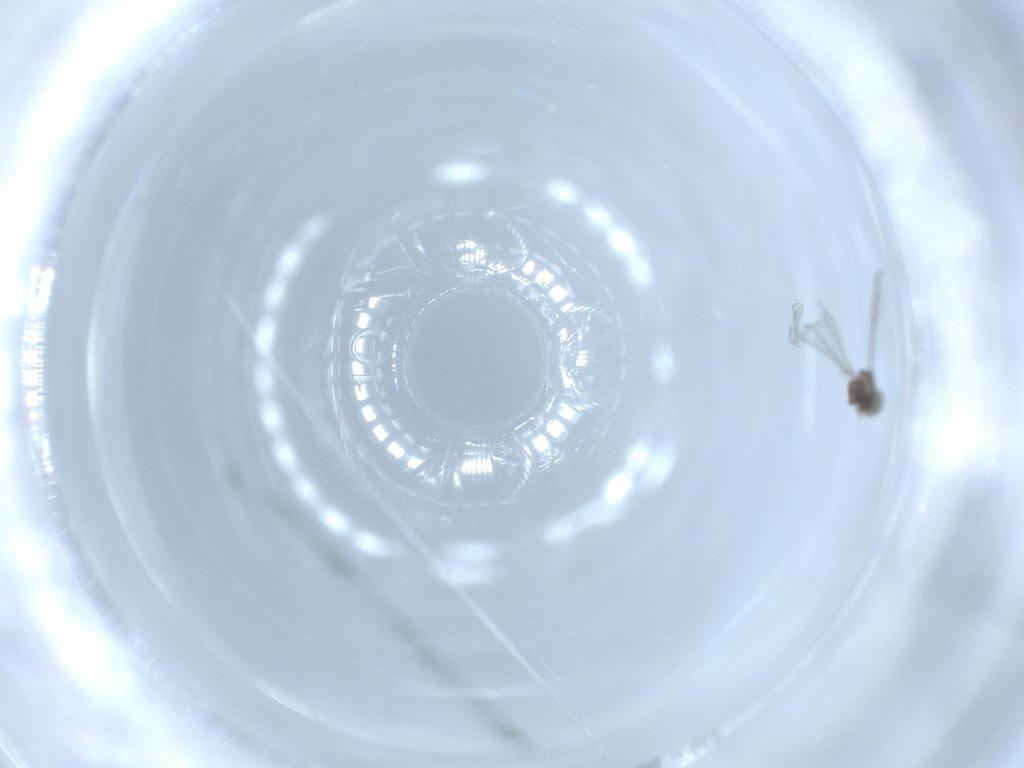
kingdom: Animalia
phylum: Arthropoda
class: Insecta
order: Diptera
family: Cecidomyiidae
